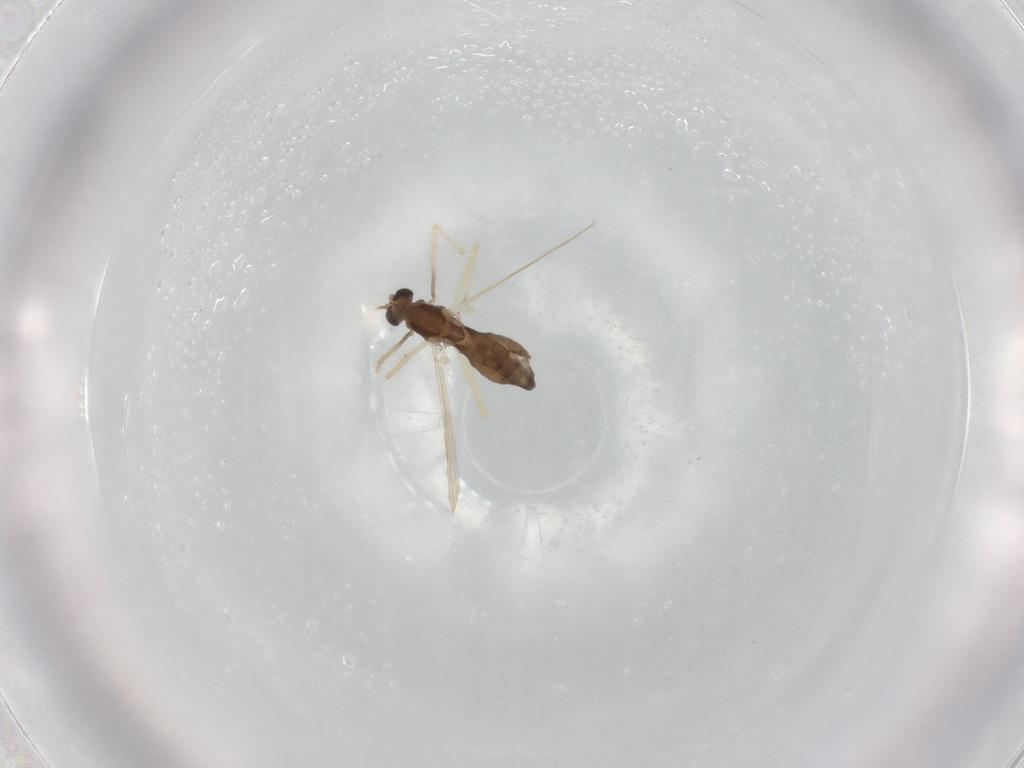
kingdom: Animalia
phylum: Arthropoda
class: Insecta
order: Diptera
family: Chironomidae
